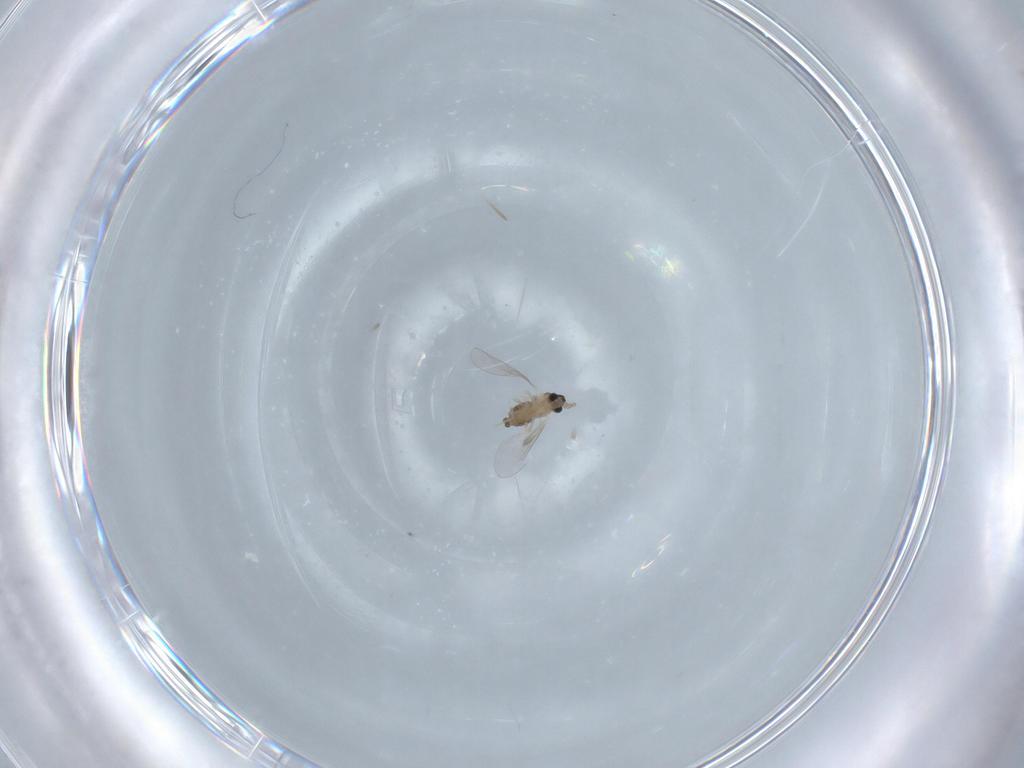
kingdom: Animalia
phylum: Arthropoda
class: Insecta
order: Diptera
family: Cecidomyiidae
